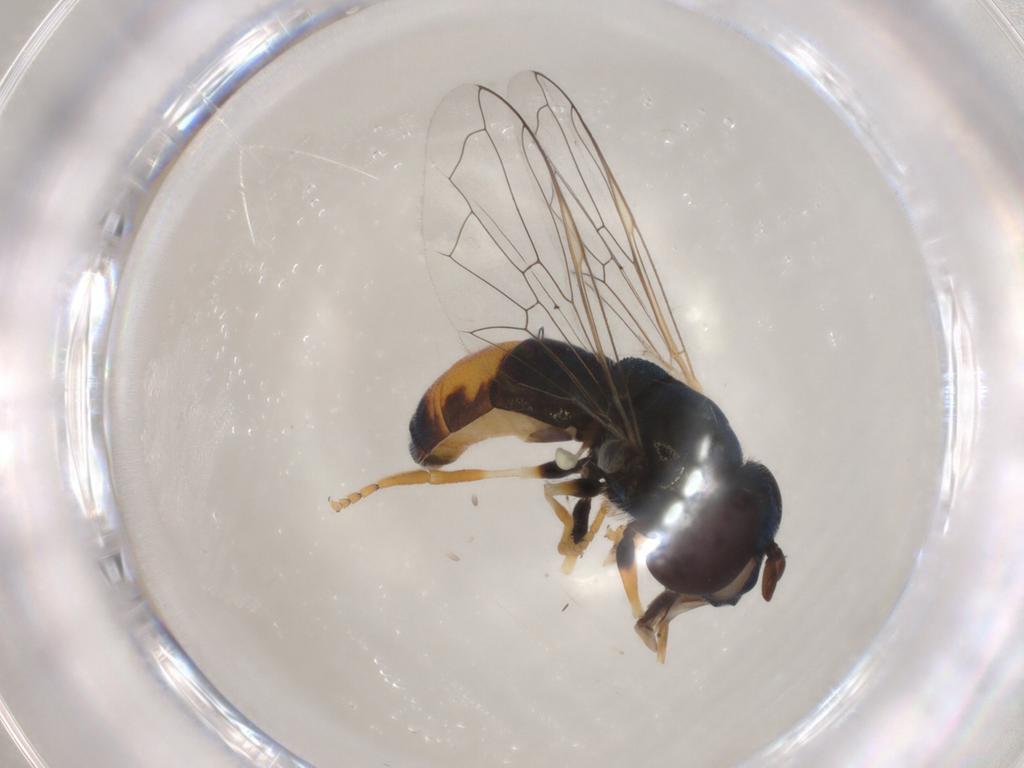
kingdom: Animalia
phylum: Arthropoda
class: Insecta
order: Diptera
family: Syrphidae
